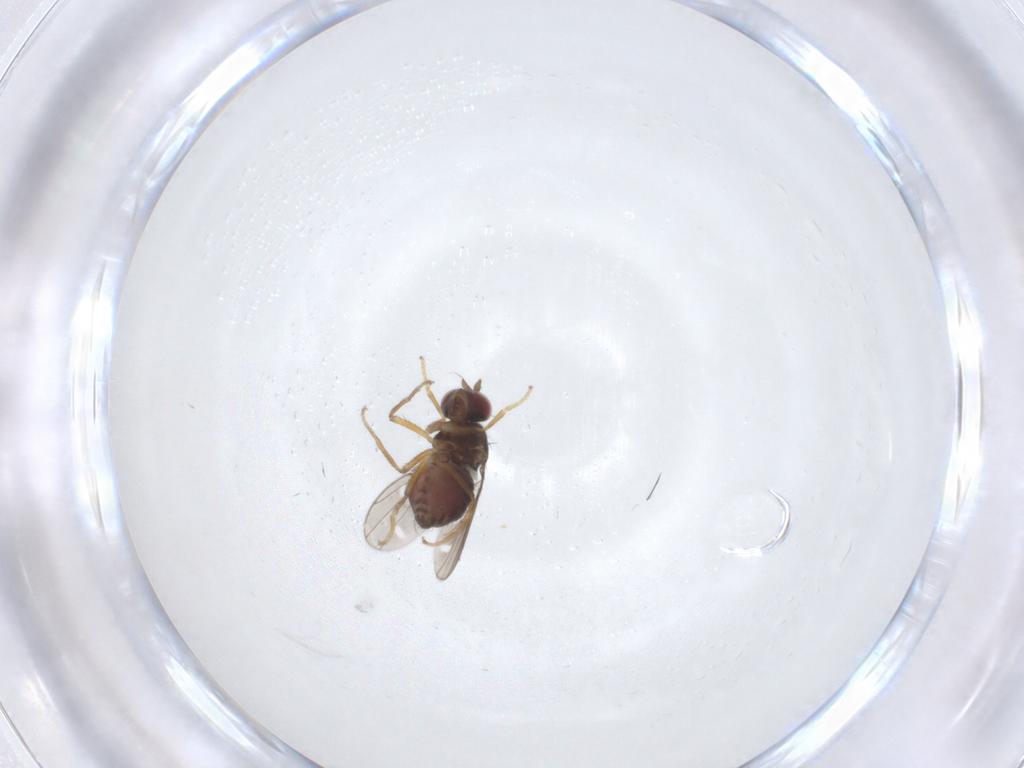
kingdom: Animalia
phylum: Arthropoda
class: Insecta
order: Diptera
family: Chironomidae
